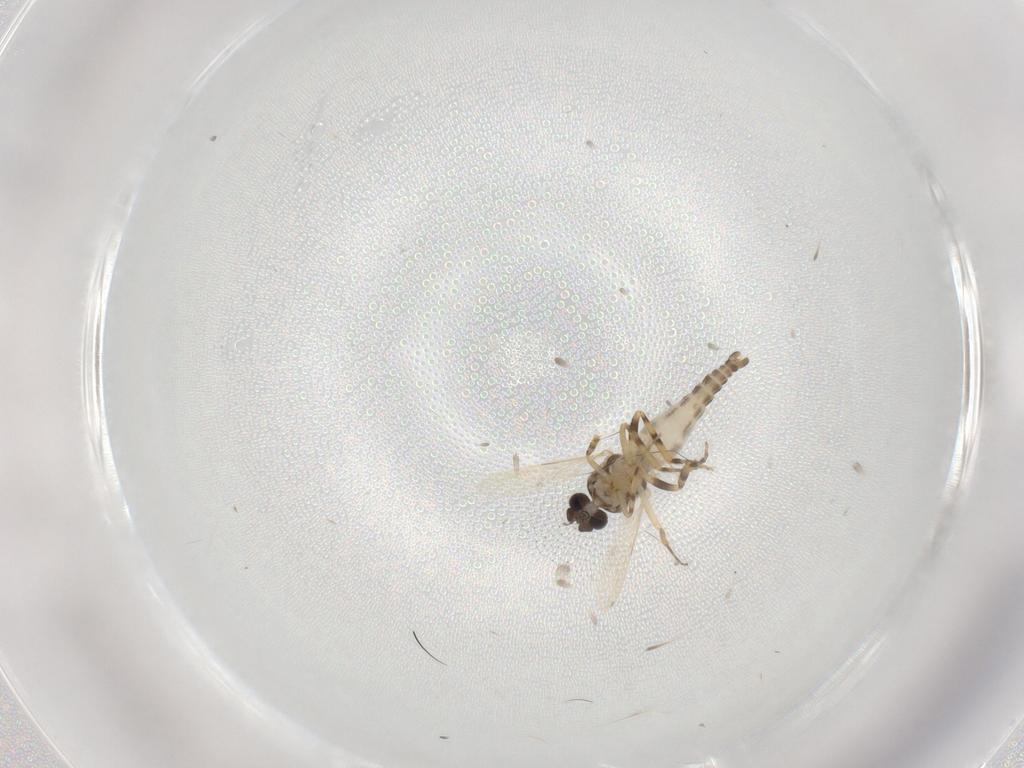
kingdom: Animalia
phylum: Arthropoda
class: Insecta
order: Diptera
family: Ceratopogonidae
